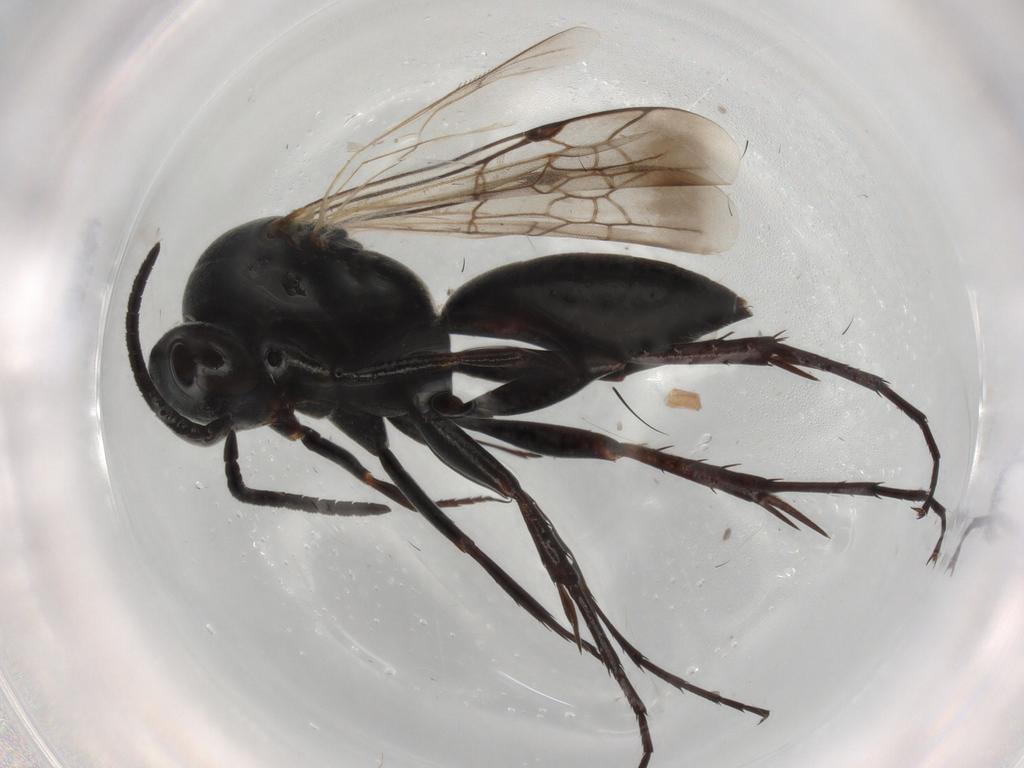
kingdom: Animalia
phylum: Arthropoda
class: Insecta
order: Hymenoptera
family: Scelionidae
